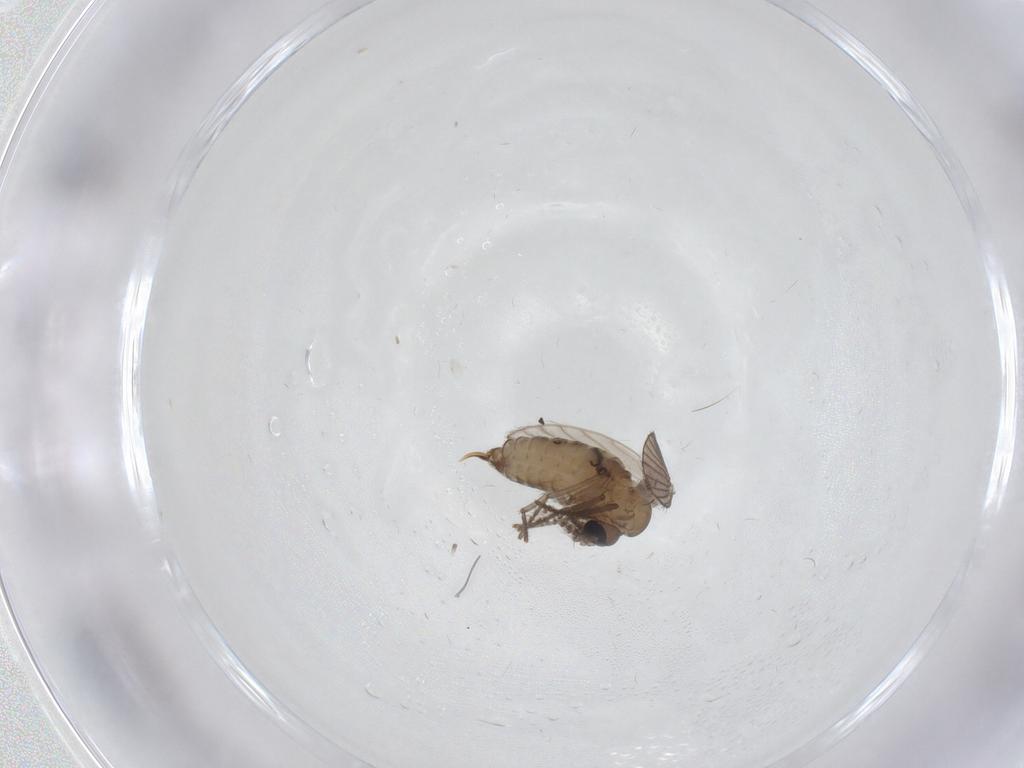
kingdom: Animalia
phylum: Arthropoda
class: Insecta
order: Diptera
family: Psychodidae
